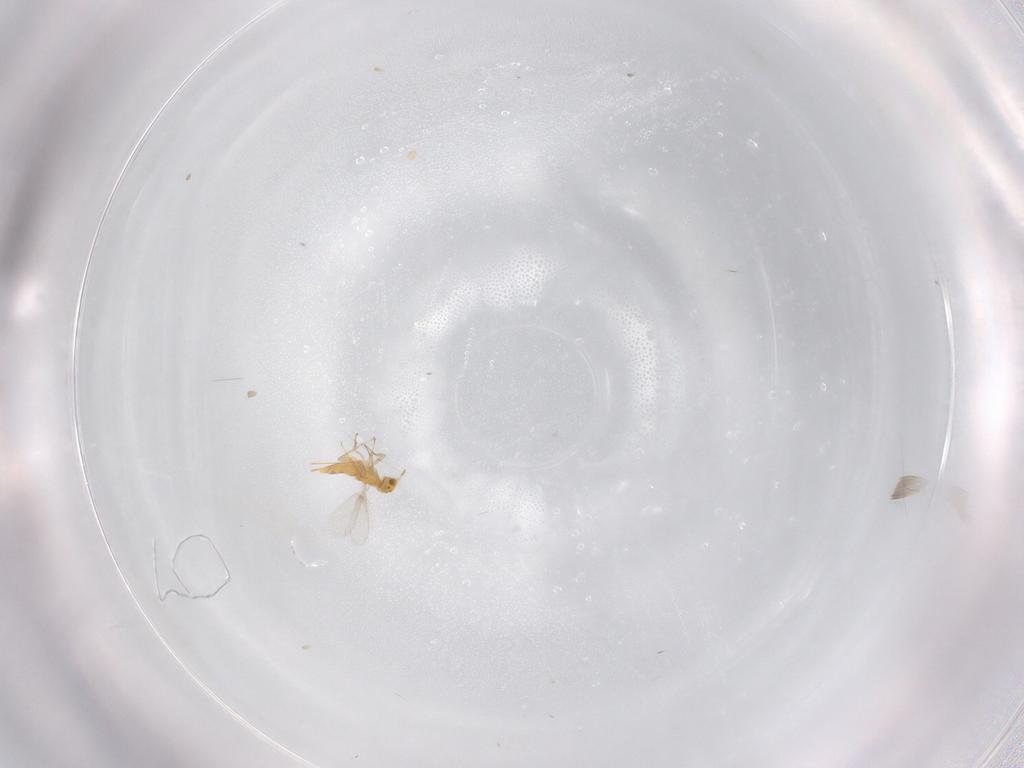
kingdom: Animalia
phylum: Arthropoda
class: Insecta
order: Hymenoptera
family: Aphelinidae
